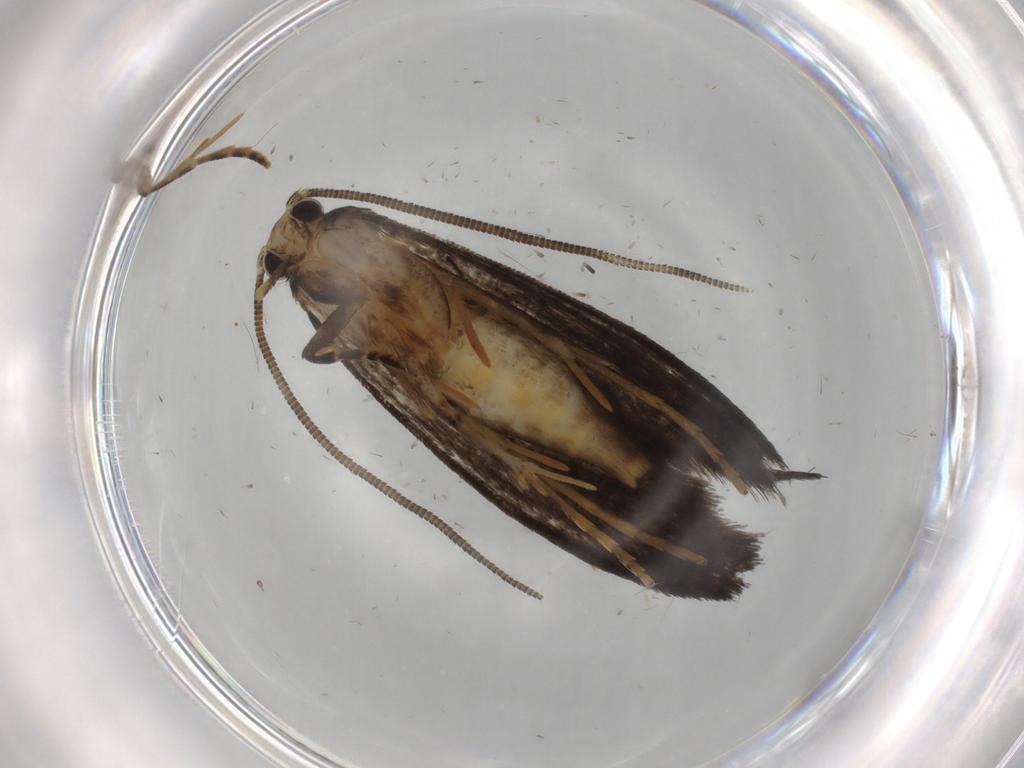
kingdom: Animalia
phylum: Arthropoda
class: Insecta
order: Lepidoptera
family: Tineidae
